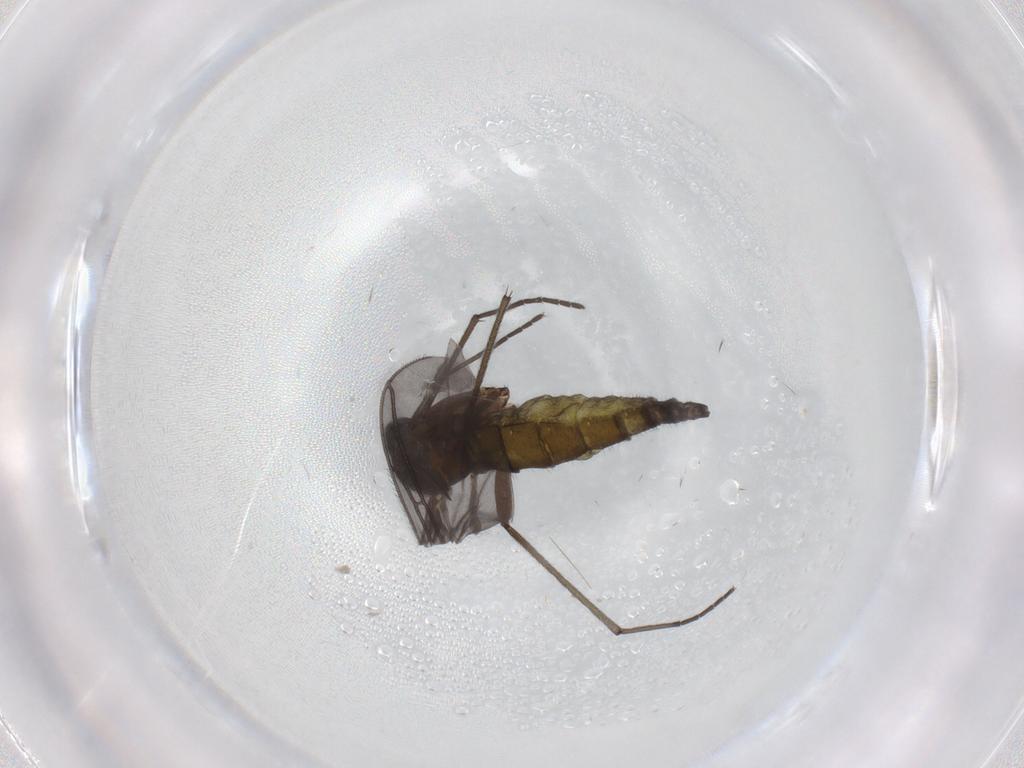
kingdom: Animalia
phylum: Arthropoda
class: Insecta
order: Diptera
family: Sciaridae
